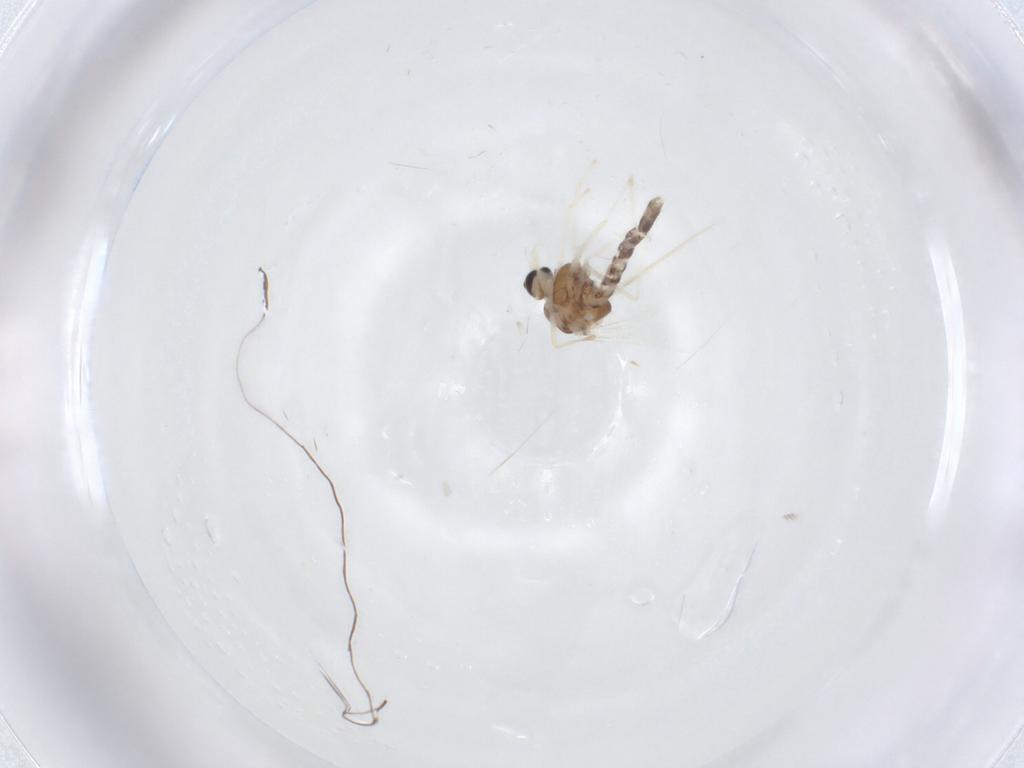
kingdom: Animalia
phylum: Arthropoda
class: Insecta
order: Diptera
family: Chironomidae
